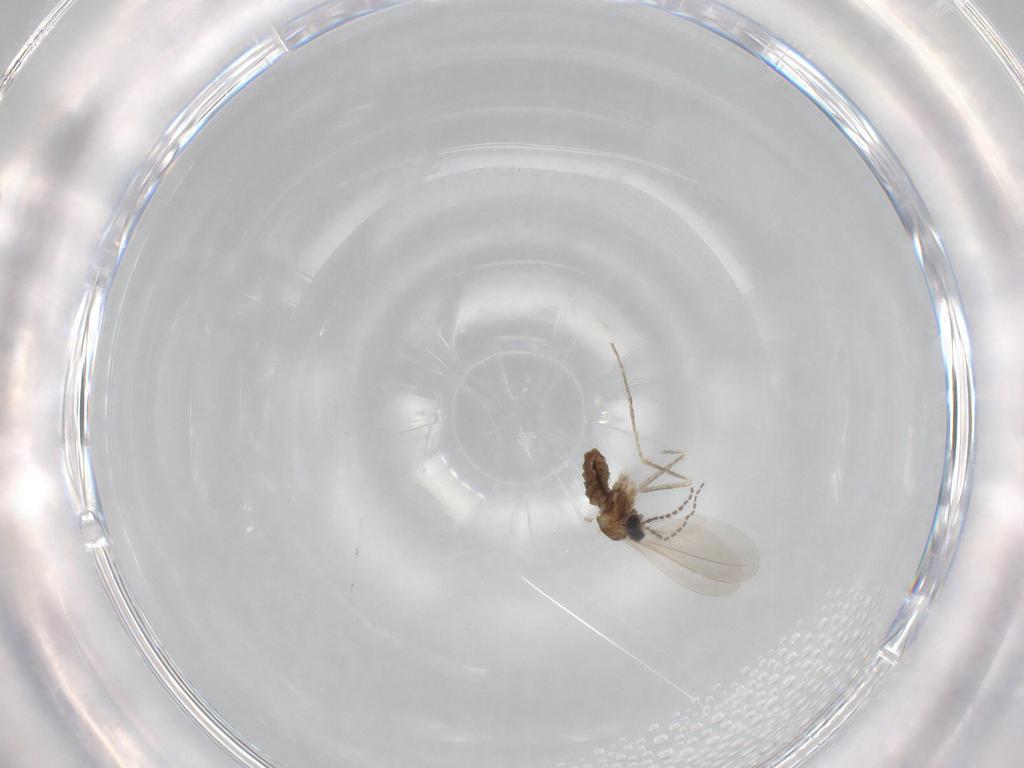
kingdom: Animalia
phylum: Arthropoda
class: Insecta
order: Diptera
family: Cecidomyiidae
